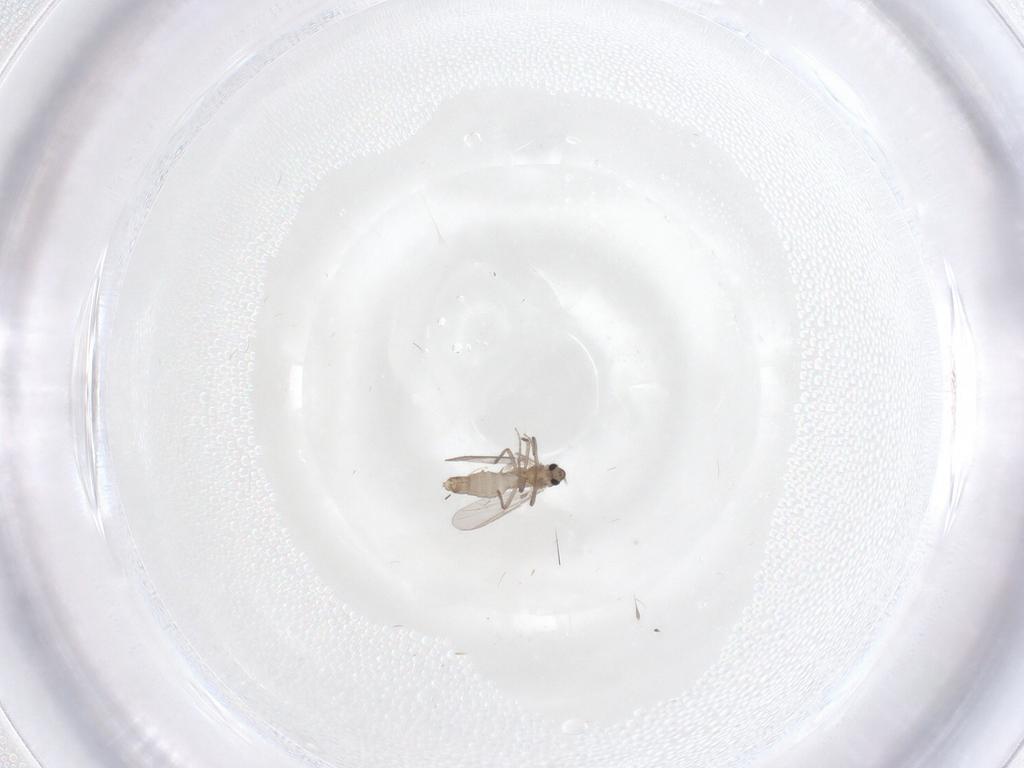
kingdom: Animalia
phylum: Arthropoda
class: Insecta
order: Diptera
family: Chironomidae
